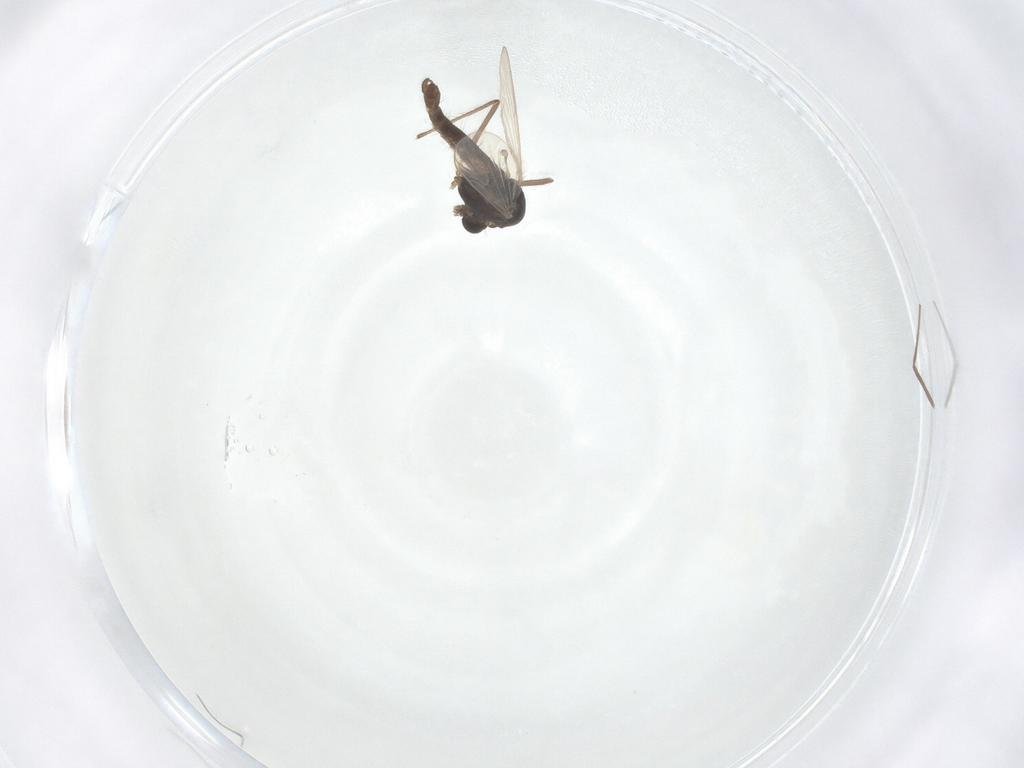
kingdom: Animalia
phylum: Arthropoda
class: Insecta
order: Diptera
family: Chironomidae
